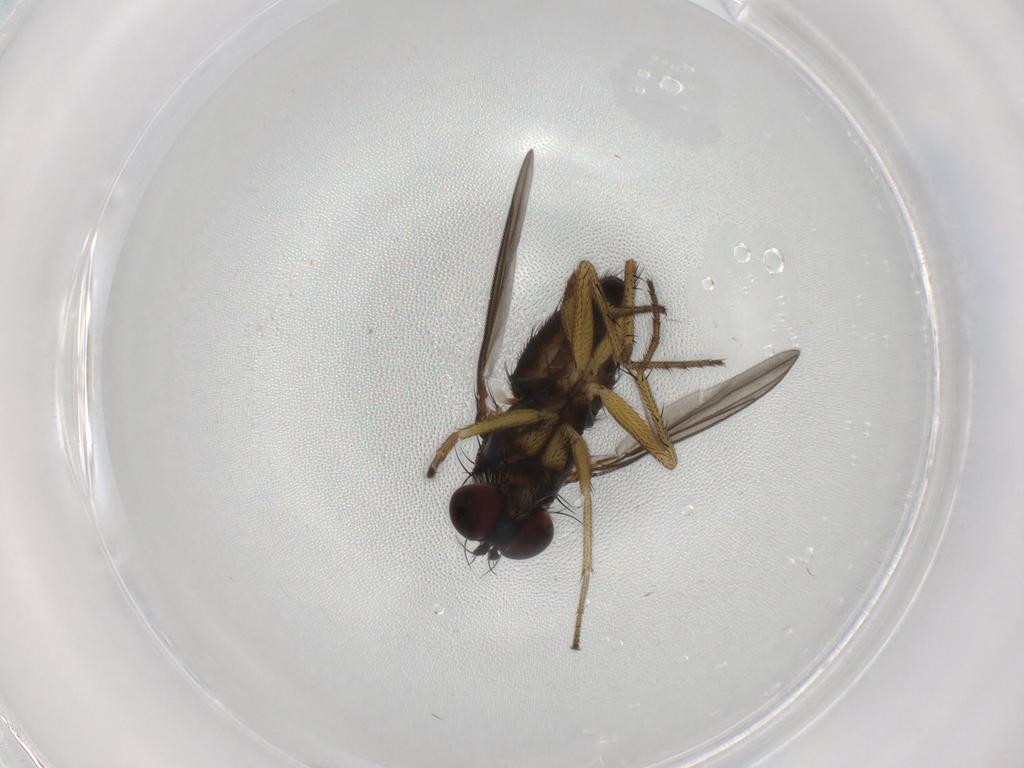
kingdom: Animalia
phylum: Arthropoda
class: Insecta
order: Diptera
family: Dolichopodidae
